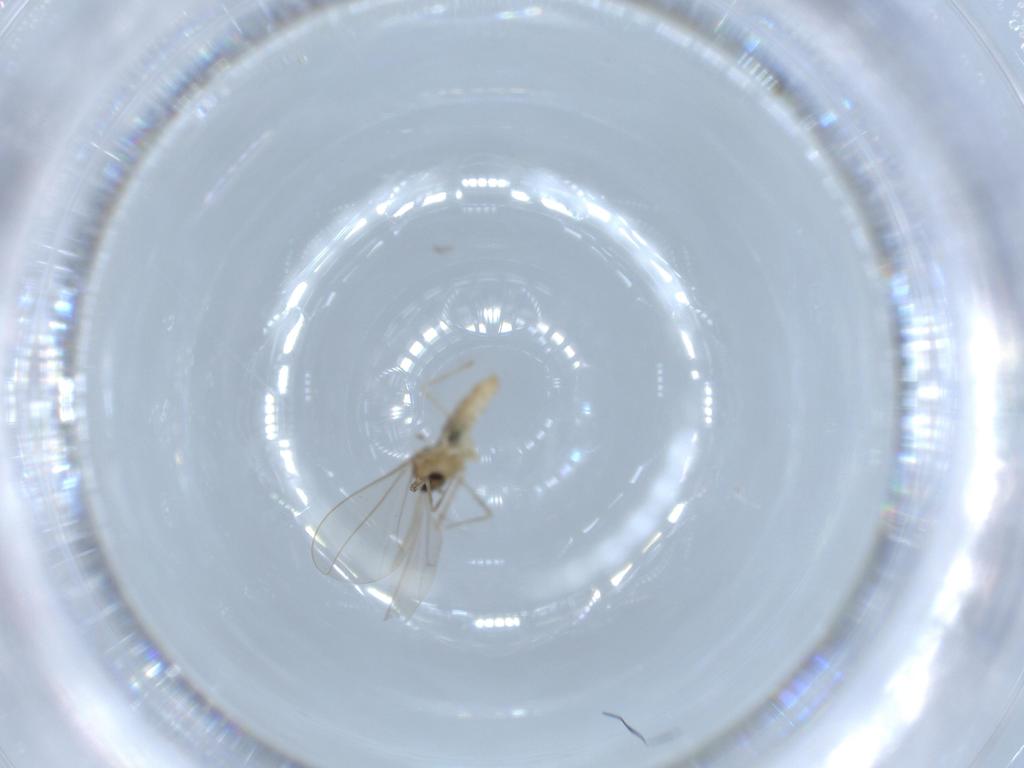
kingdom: Animalia
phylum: Arthropoda
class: Insecta
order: Diptera
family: Cecidomyiidae
